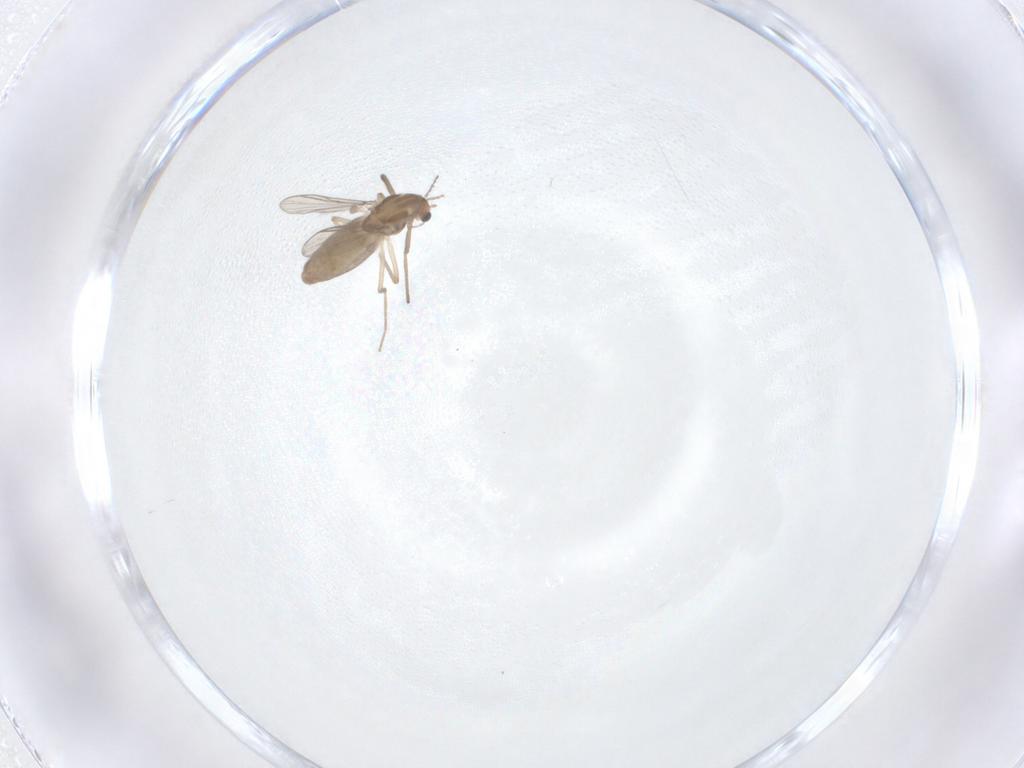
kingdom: Animalia
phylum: Arthropoda
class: Insecta
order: Diptera
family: Chironomidae
